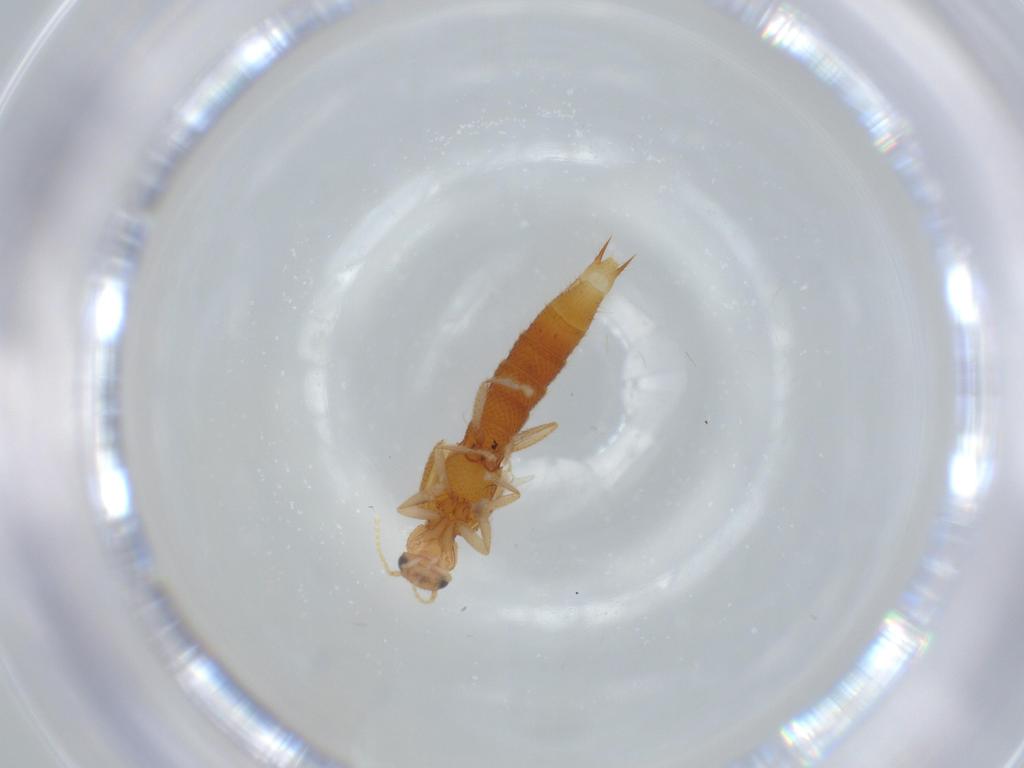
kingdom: Animalia
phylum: Arthropoda
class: Insecta
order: Coleoptera
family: Staphylinidae
